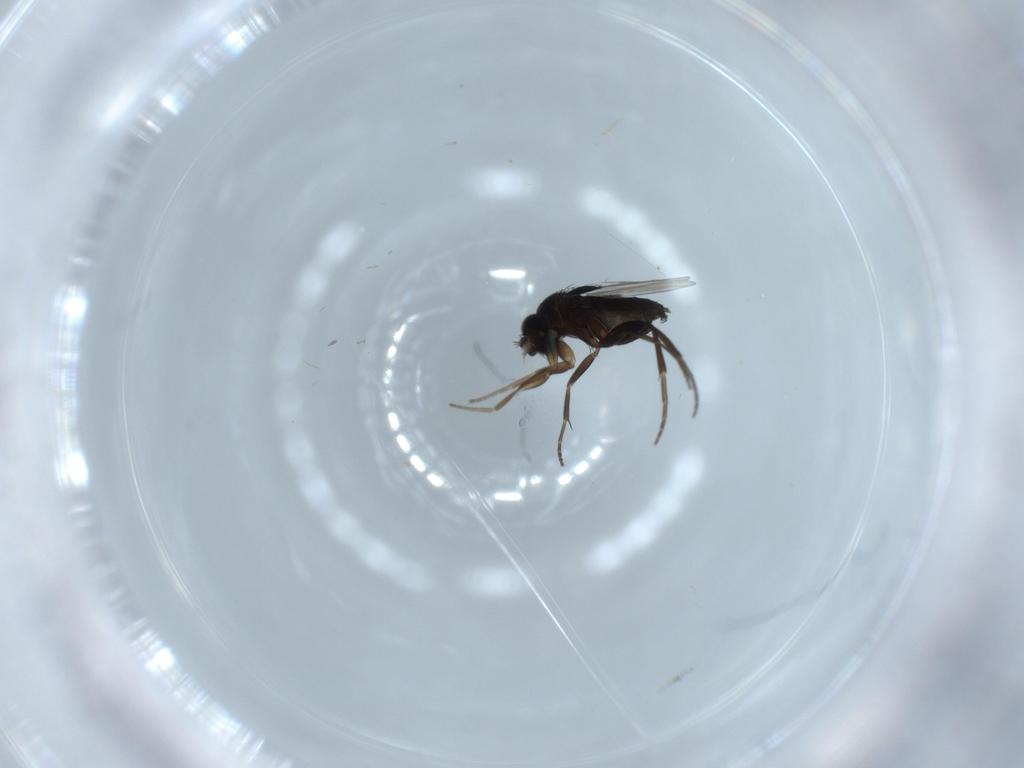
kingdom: Animalia
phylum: Arthropoda
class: Insecta
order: Diptera
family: Phoridae
